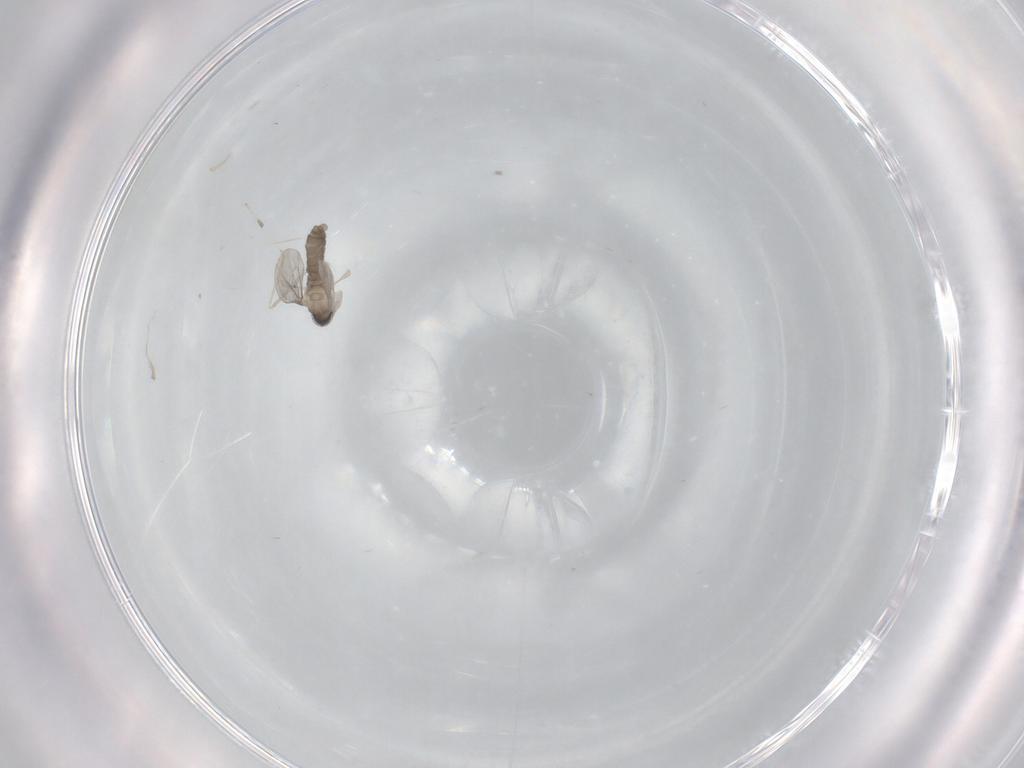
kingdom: Animalia
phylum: Arthropoda
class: Insecta
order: Diptera
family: Cecidomyiidae
